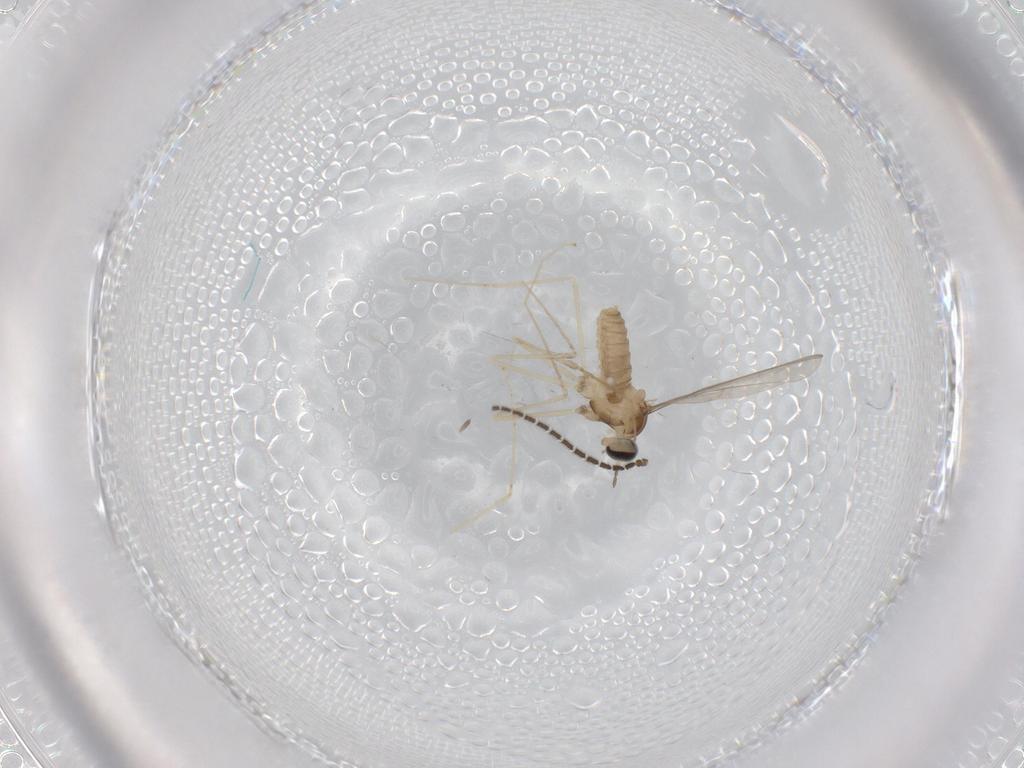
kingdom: Animalia
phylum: Arthropoda
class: Insecta
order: Diptera
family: Cecidomyiidae
